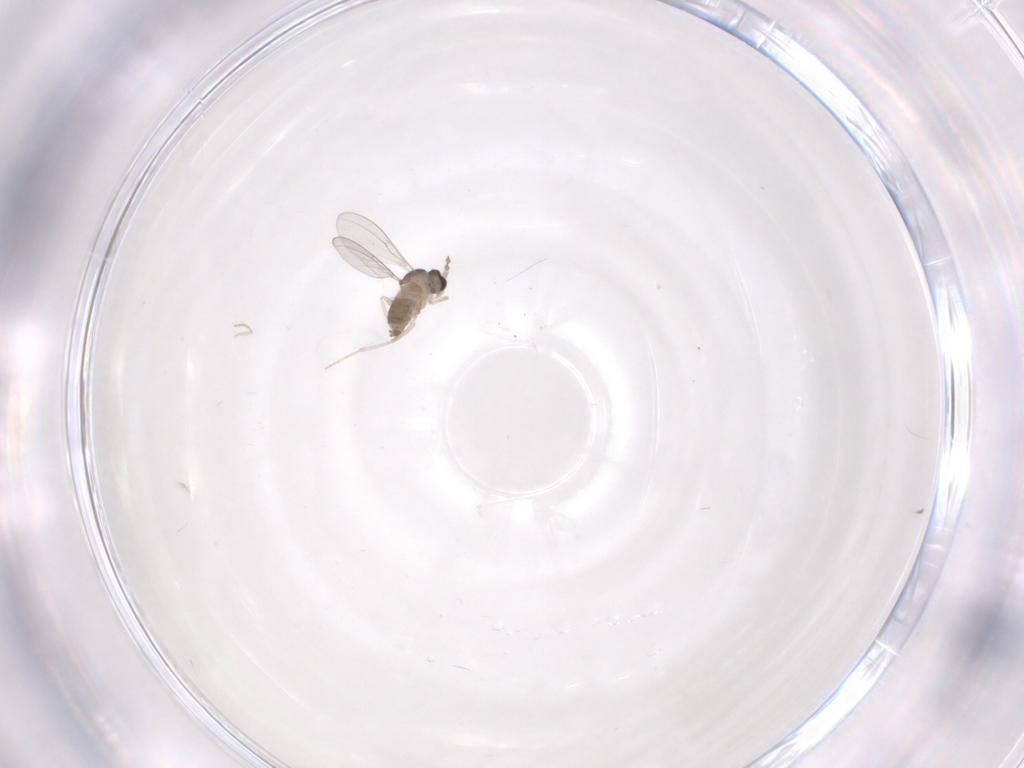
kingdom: Animalia
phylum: Arthropoda
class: Insecta
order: Diptera
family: Cecidomyiidae
